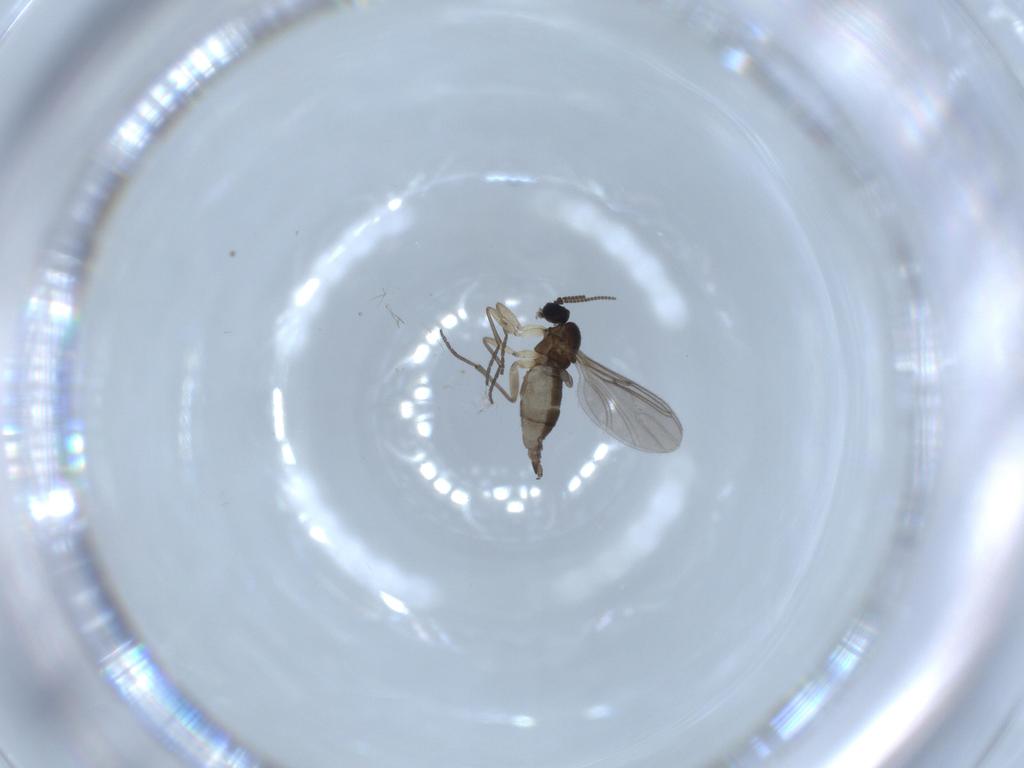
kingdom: Animalia
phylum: Arthropoda
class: Insecta
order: Diptera
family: Sciaridae
